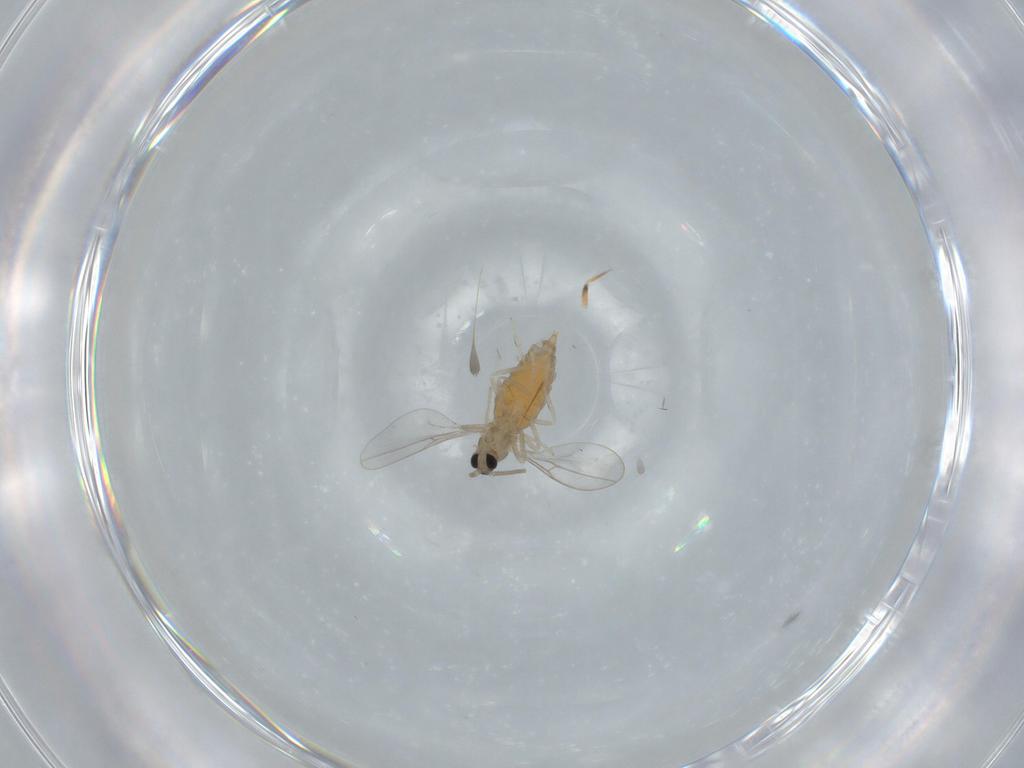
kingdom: Animalia
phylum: Arthropoda
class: Insecta
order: Diptera
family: Cecidomyiidae
